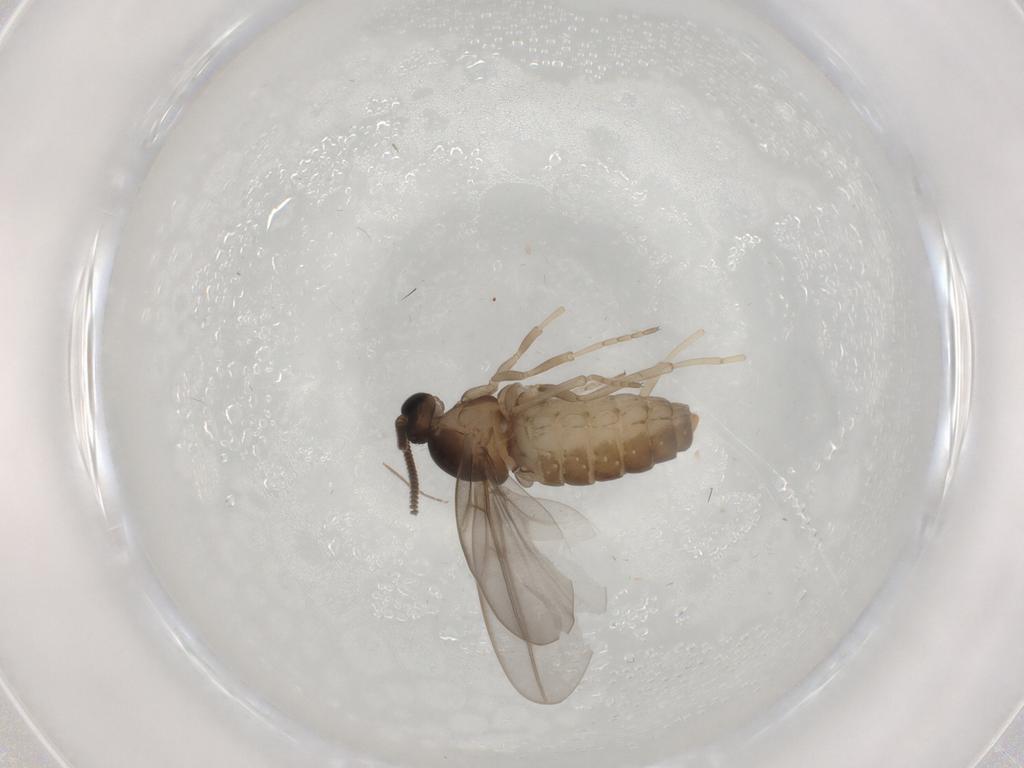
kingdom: Animalia
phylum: Arthropoda
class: Insecta
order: Diptera
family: Cecidomyiidae
